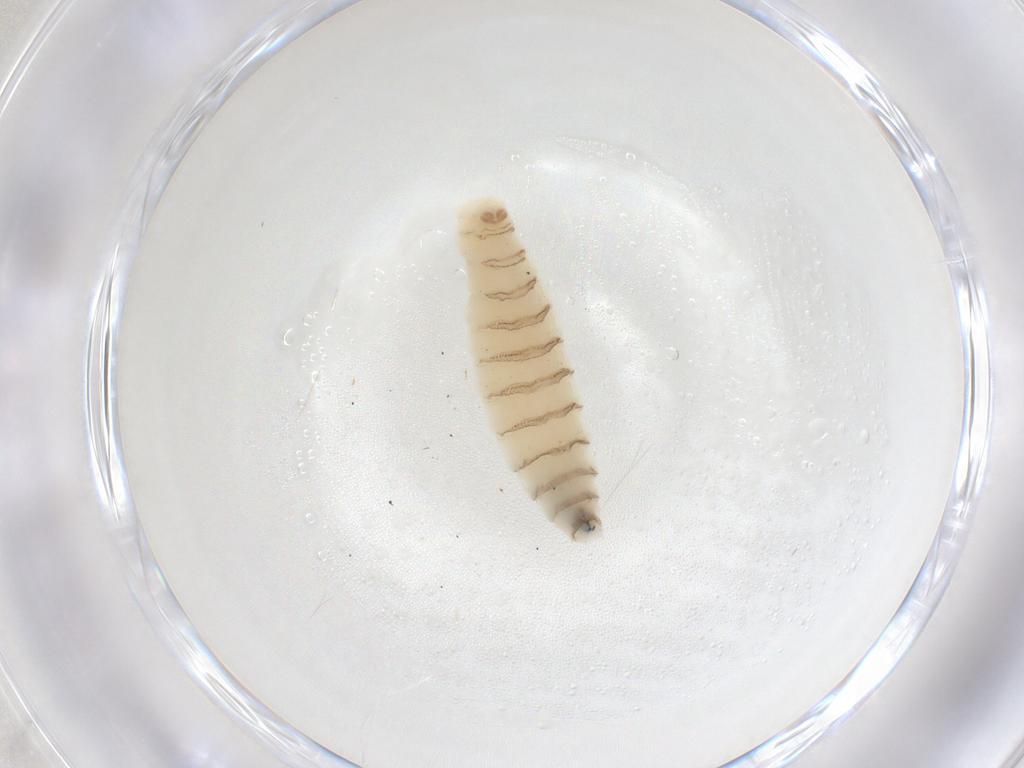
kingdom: Animalia
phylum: Arthropoda
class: Insecta
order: Diptera
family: Sarcophagidae
